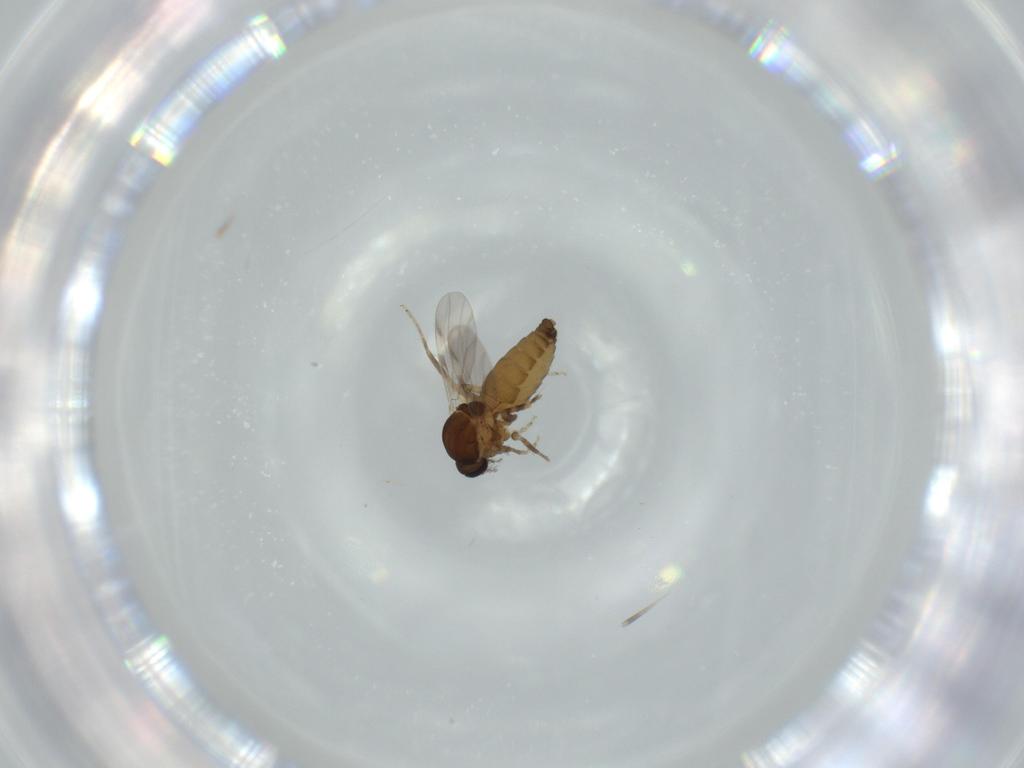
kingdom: Animalia
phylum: Arthropoda
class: Insecta
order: Diptera
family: Ceratopogonidae
